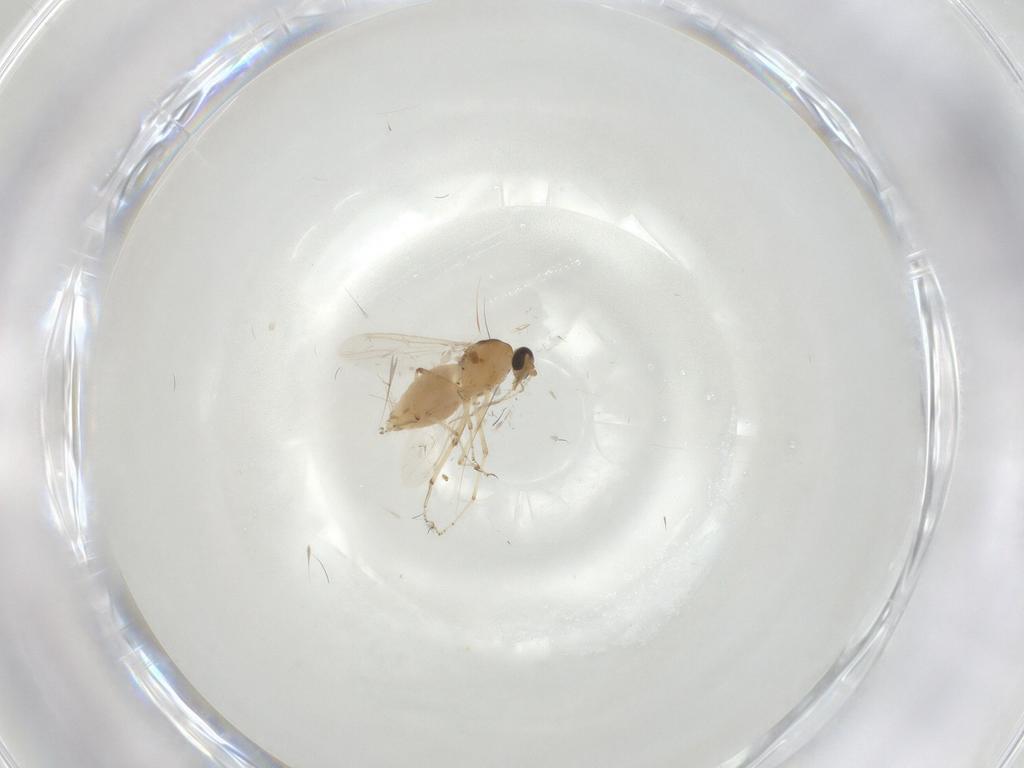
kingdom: Animalia
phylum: Arthropoda
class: Insecta
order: Diptera
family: Ceratopogonidae
